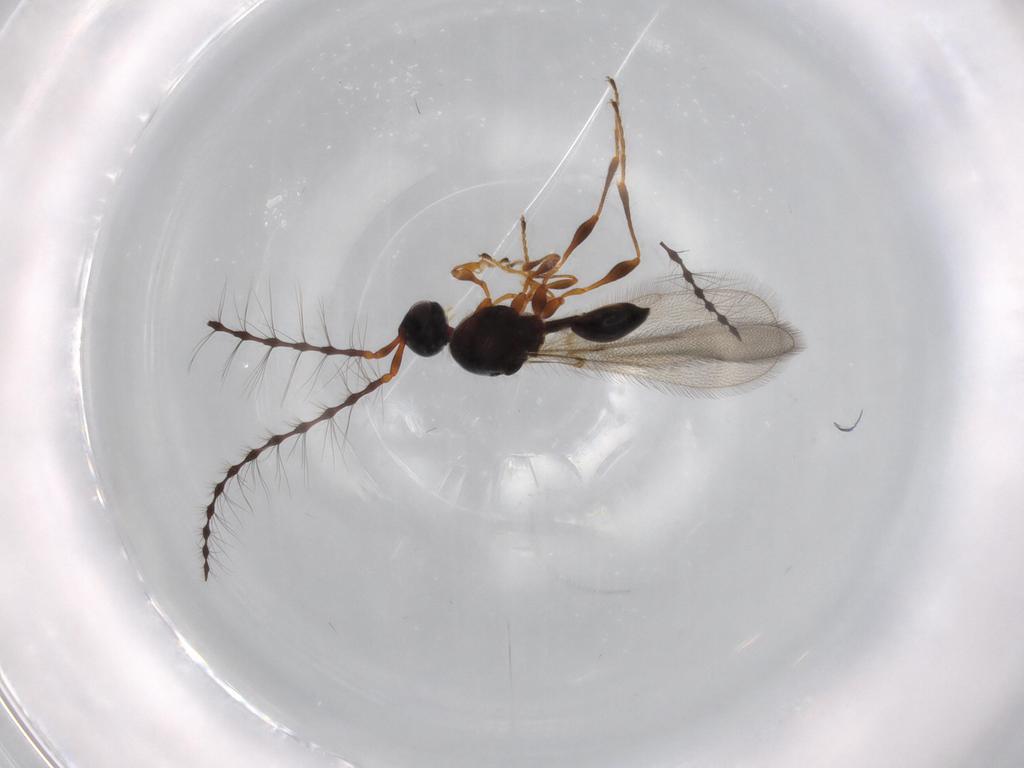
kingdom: Animalia
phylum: Arthropoda
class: Insecta
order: Hymenoptera
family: Diapriidae
